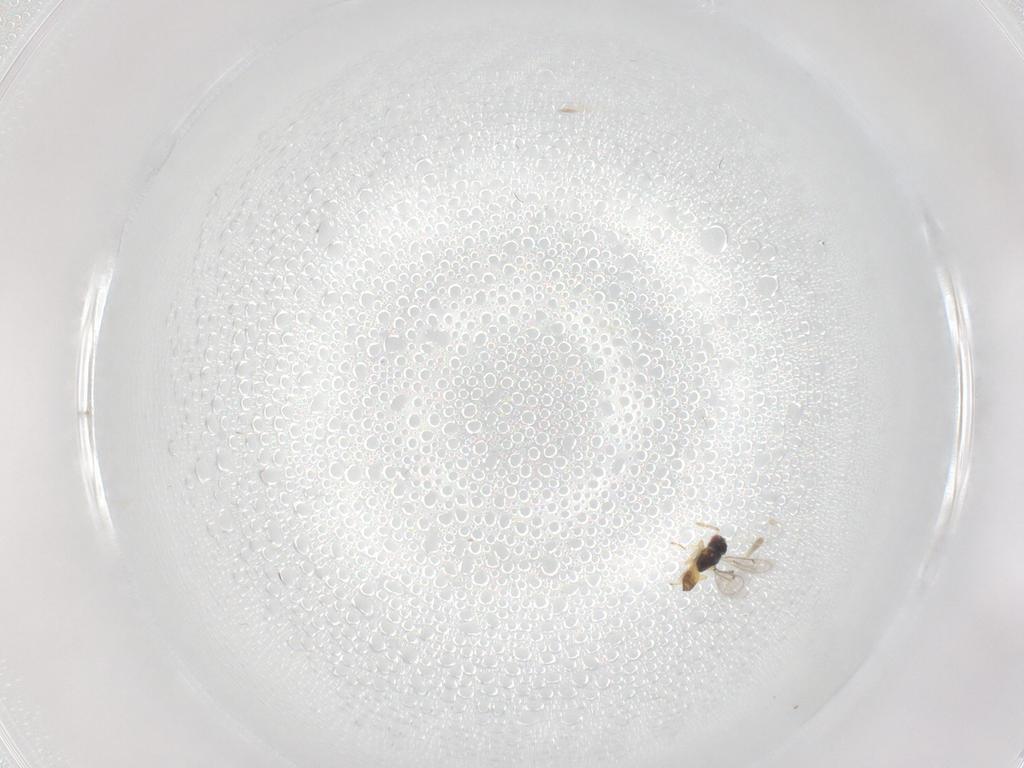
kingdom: Animalia
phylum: Arthropoda
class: Insecta
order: Hymenoptera
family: Eulophidae
